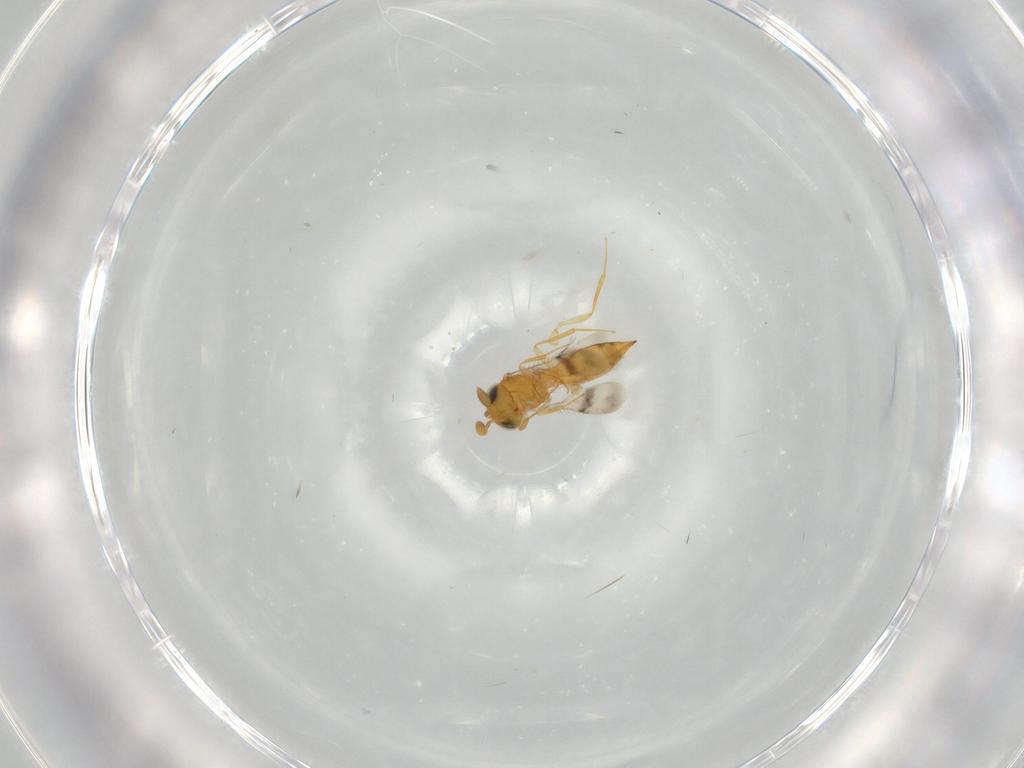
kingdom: Animalia
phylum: Arthropoda
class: Insecta
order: Hymenoptera
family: Scelionidae
